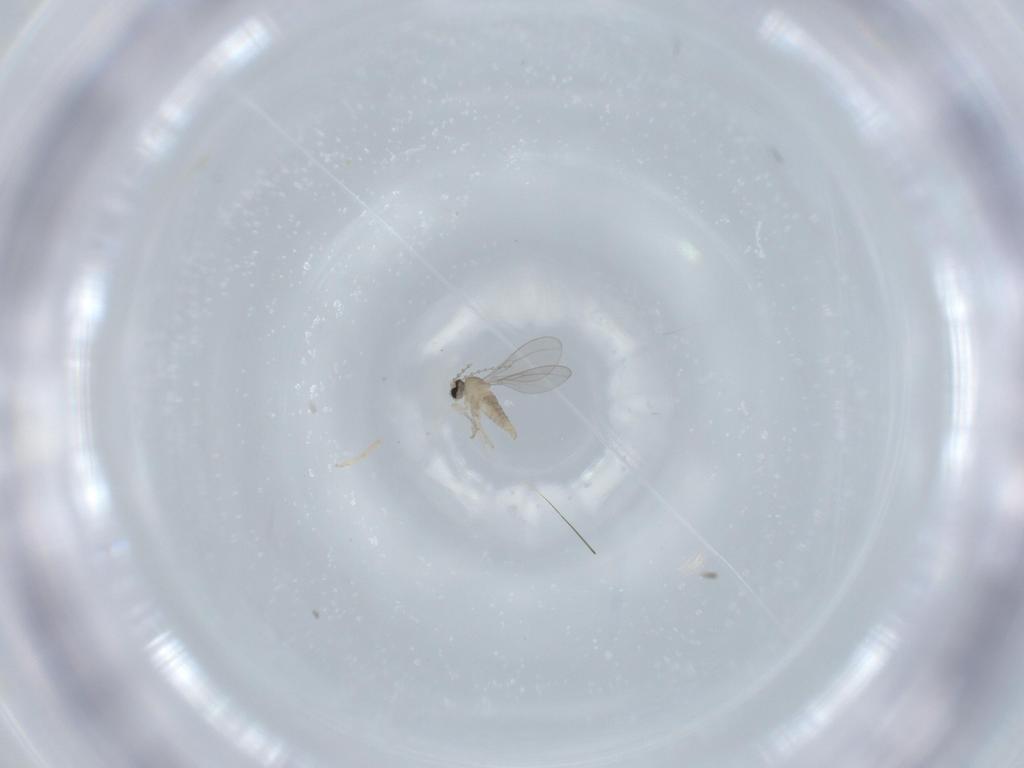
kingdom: Animalia
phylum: Arthropoda
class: Insecta
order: Diptera
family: Cecidomyiidae
